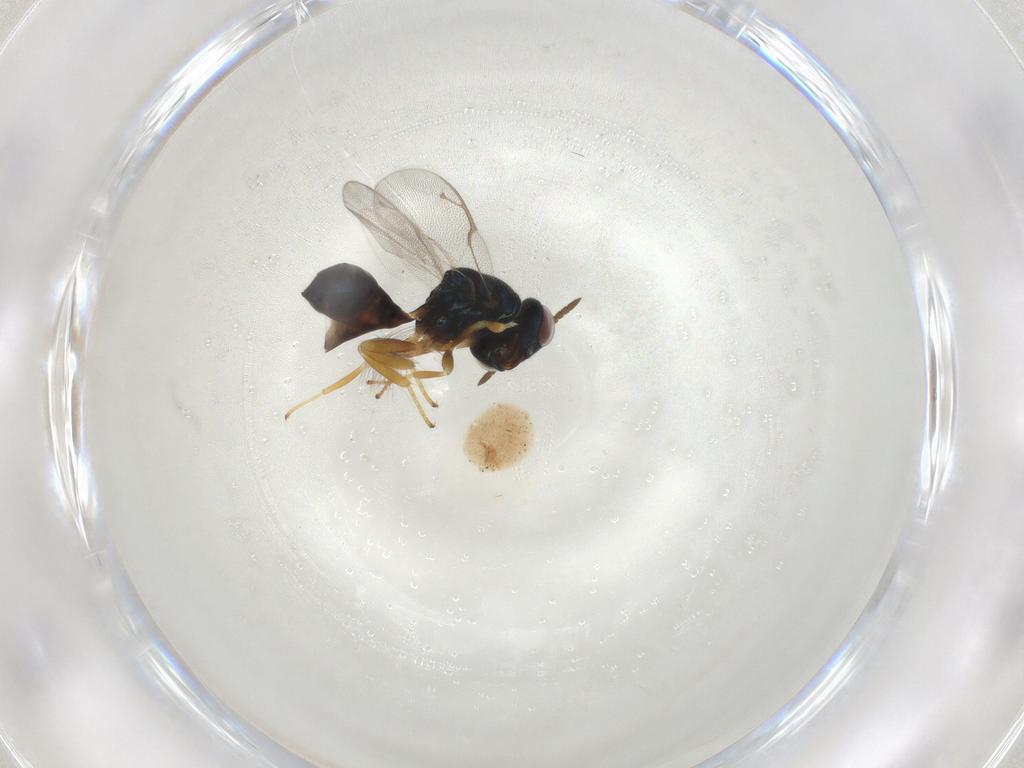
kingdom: Animalia
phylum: Arthropoda
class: Insecta
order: Hymenoptera
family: Pteromalidae
